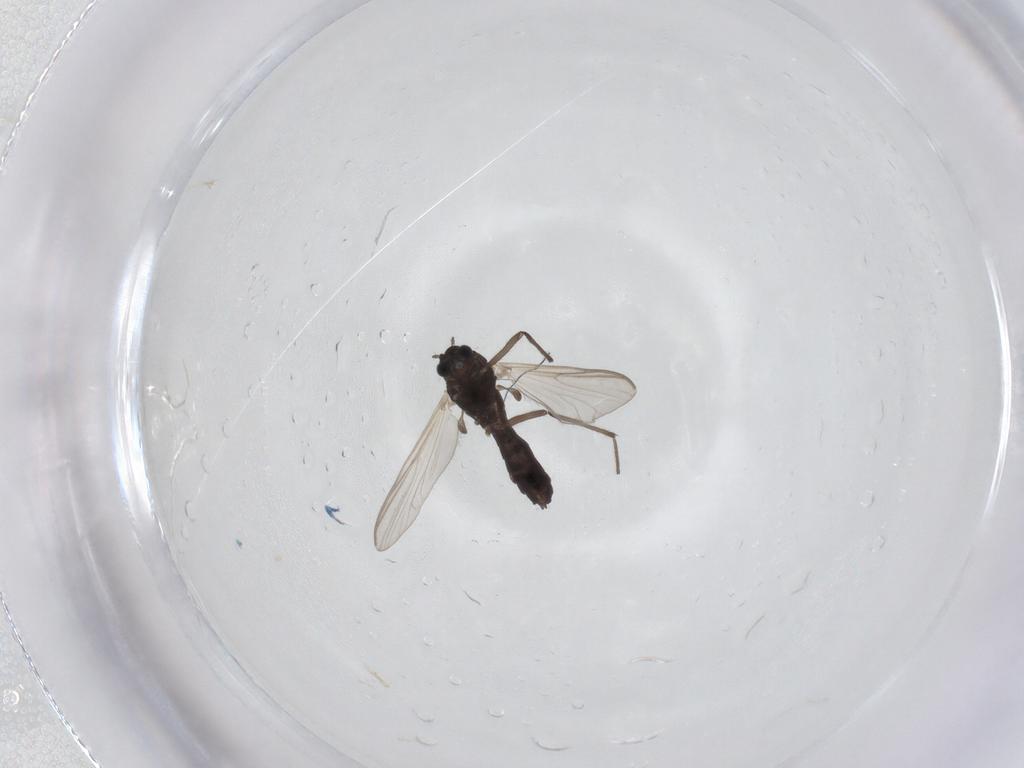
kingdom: Animalia
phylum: Arthropoda
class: Insecta
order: Diptera
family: Chironomidae
